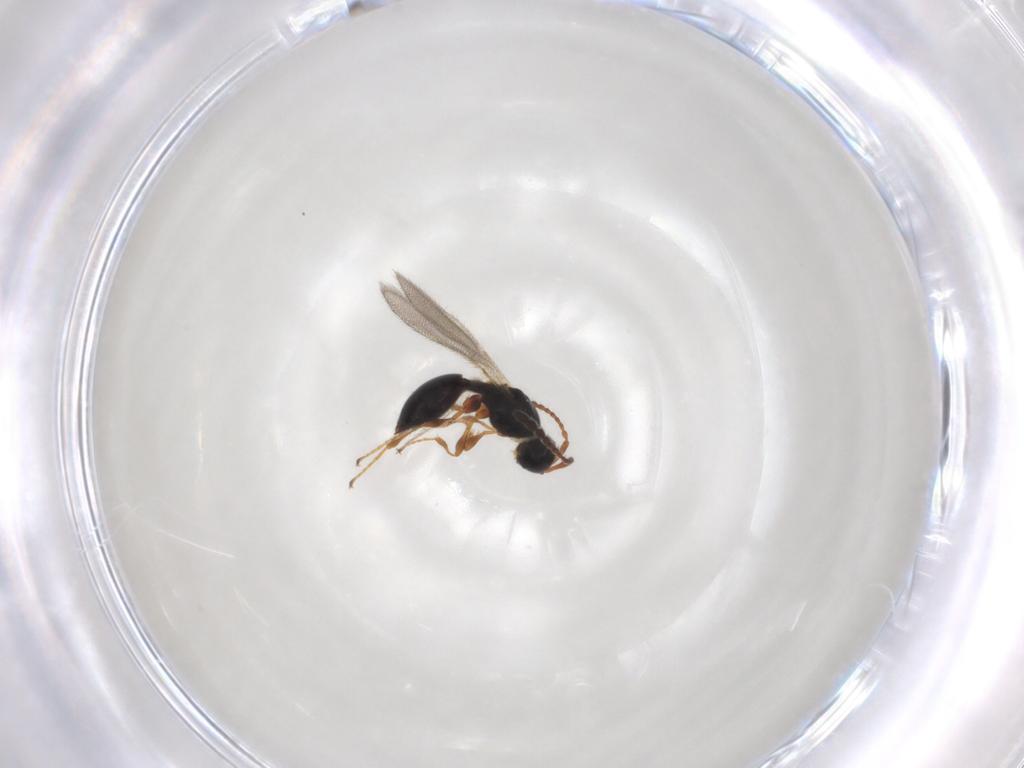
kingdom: Animalia
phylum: Arthropoda
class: Insecta
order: Hymenoptera
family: Diapriidae
